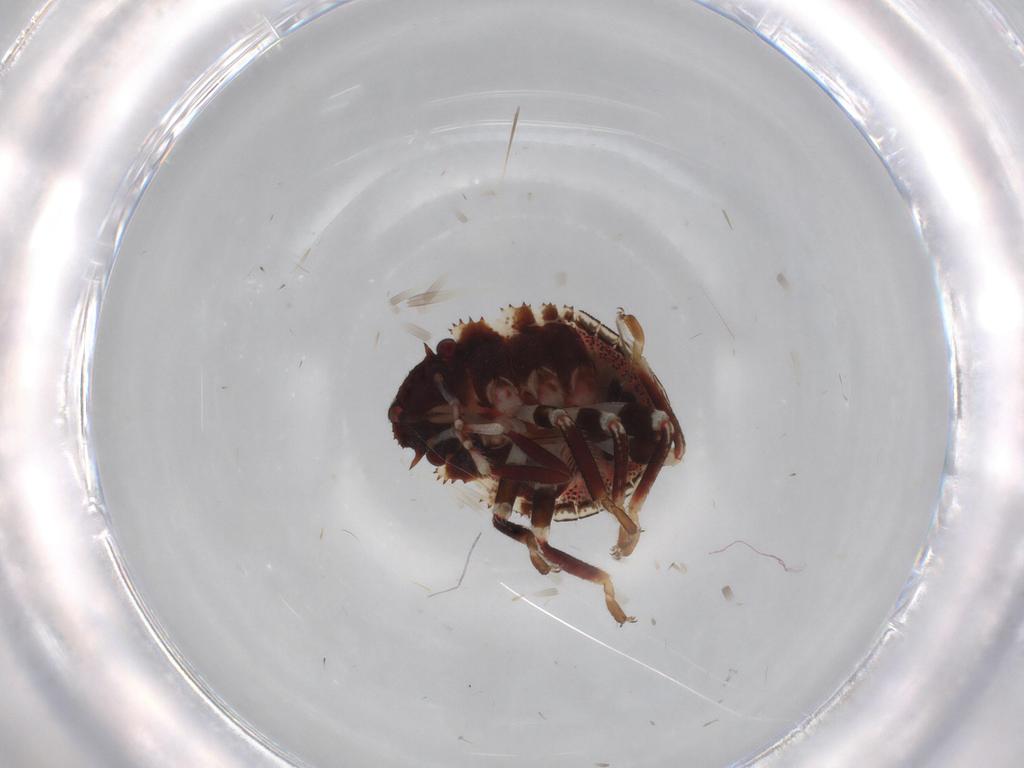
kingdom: Animalia
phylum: Arthropoda
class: Insecta
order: Hemiptera
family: Scutelleridae
